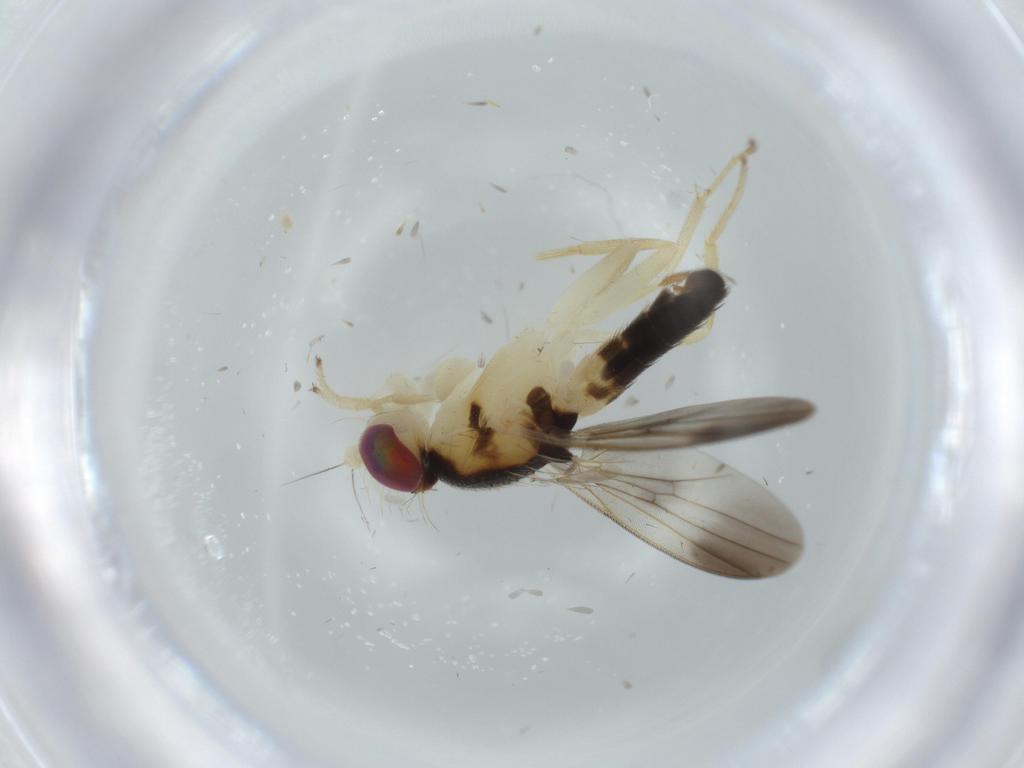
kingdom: Animalia
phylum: Arthropoda
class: Insecta
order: Diptera
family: Clusiidae
